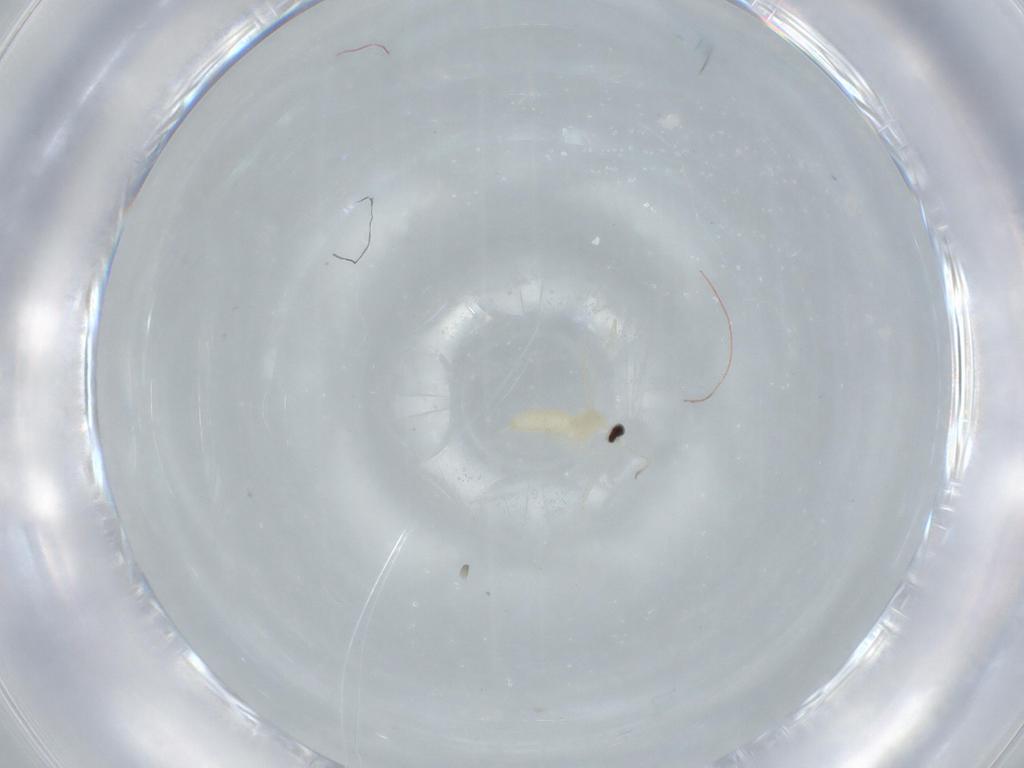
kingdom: Animalia
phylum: Arthropoda
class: Insecta
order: Diptera
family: Cecidomyiidae
